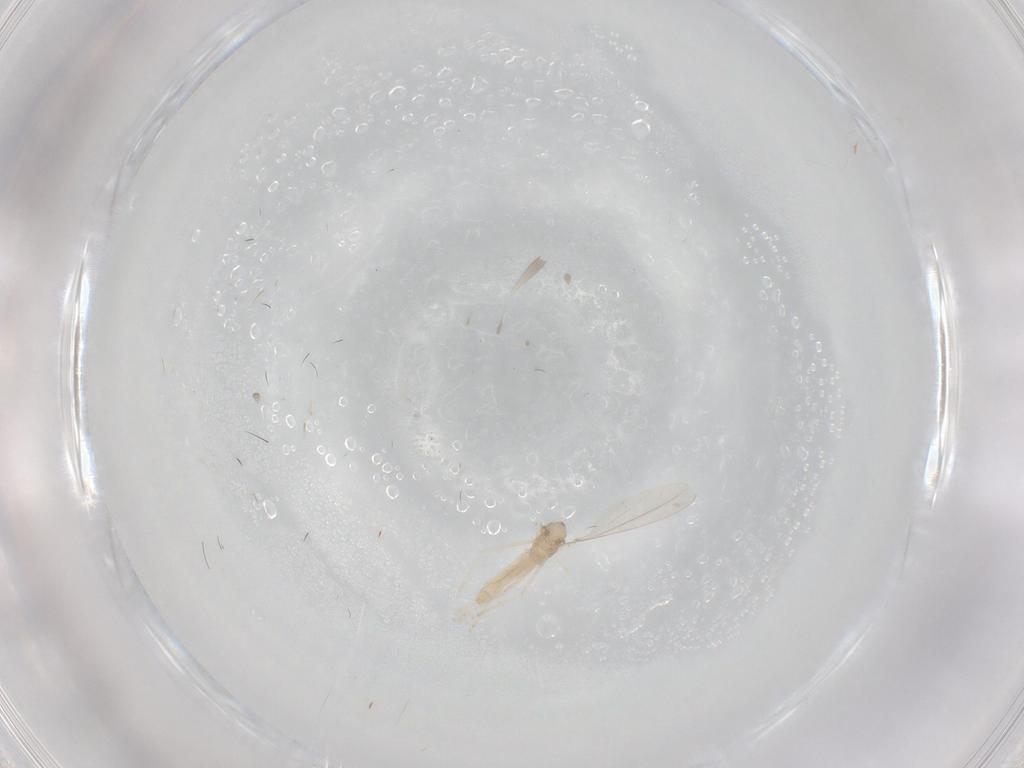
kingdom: Animalia
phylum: Arthropoda
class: Insecta
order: Diptera
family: Cecidomyiidae
